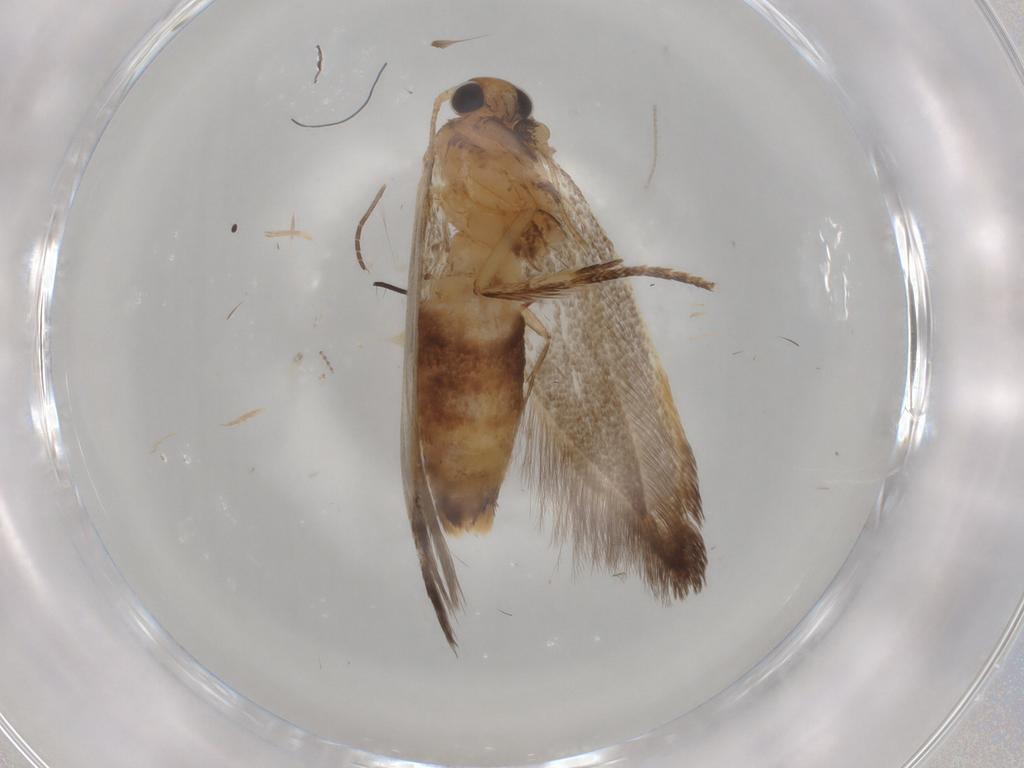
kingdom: Animalia
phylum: Arthropoda
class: Insecta
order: Lepidoptera
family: Oecophoridae
